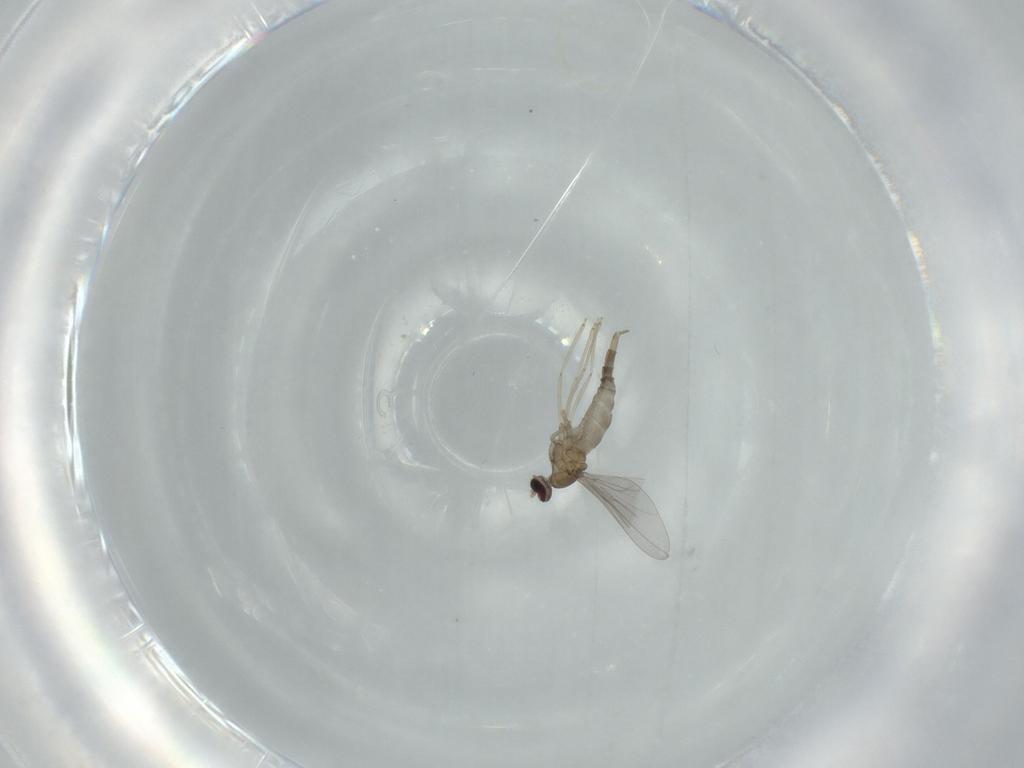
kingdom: Animalia
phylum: Arthropoda
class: Insecta
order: Diptera
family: Cecidomyiidae
